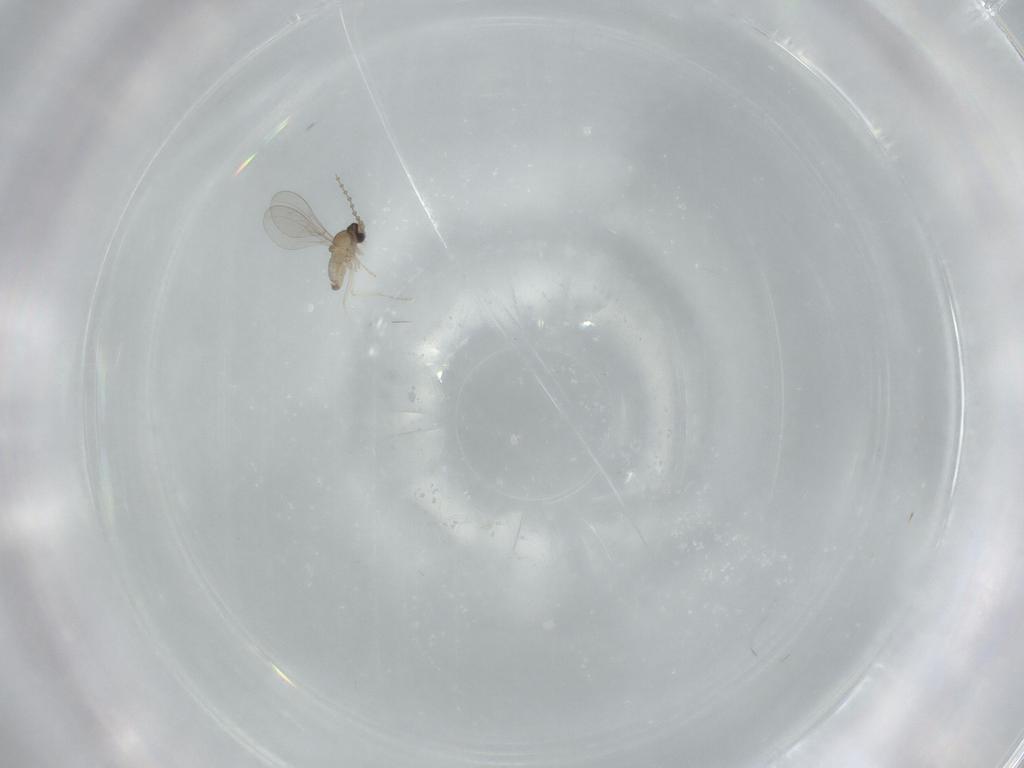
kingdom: Animalia
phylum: Arthropoda
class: Insecta
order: Diptera
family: Cecidomyiidae
